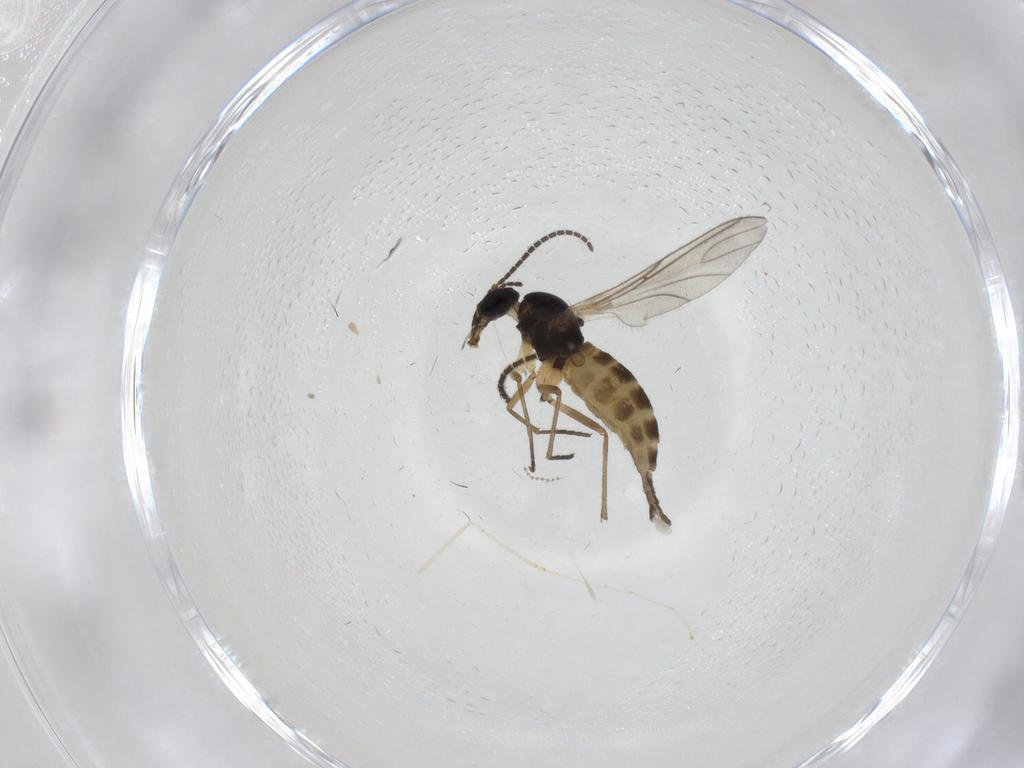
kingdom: Animalia
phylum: Arthropoda
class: Insecta
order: Diptera
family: Sciaridae
